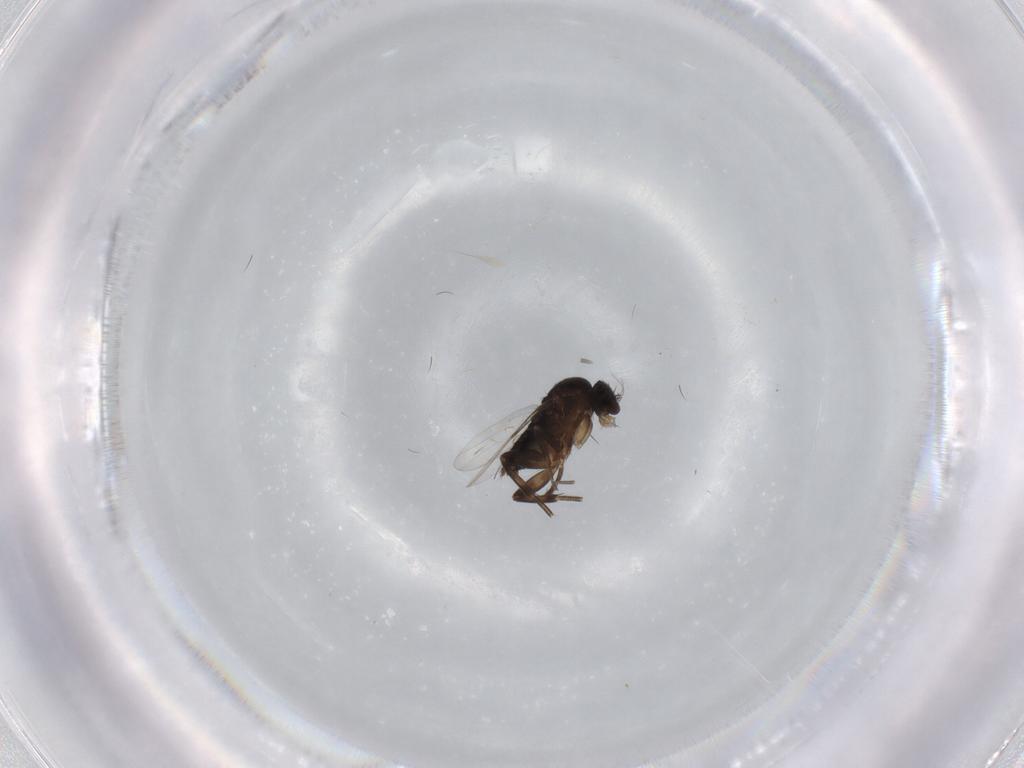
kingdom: Animalia
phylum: Arthropoda
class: Insecta
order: Diptera
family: Phoridae
